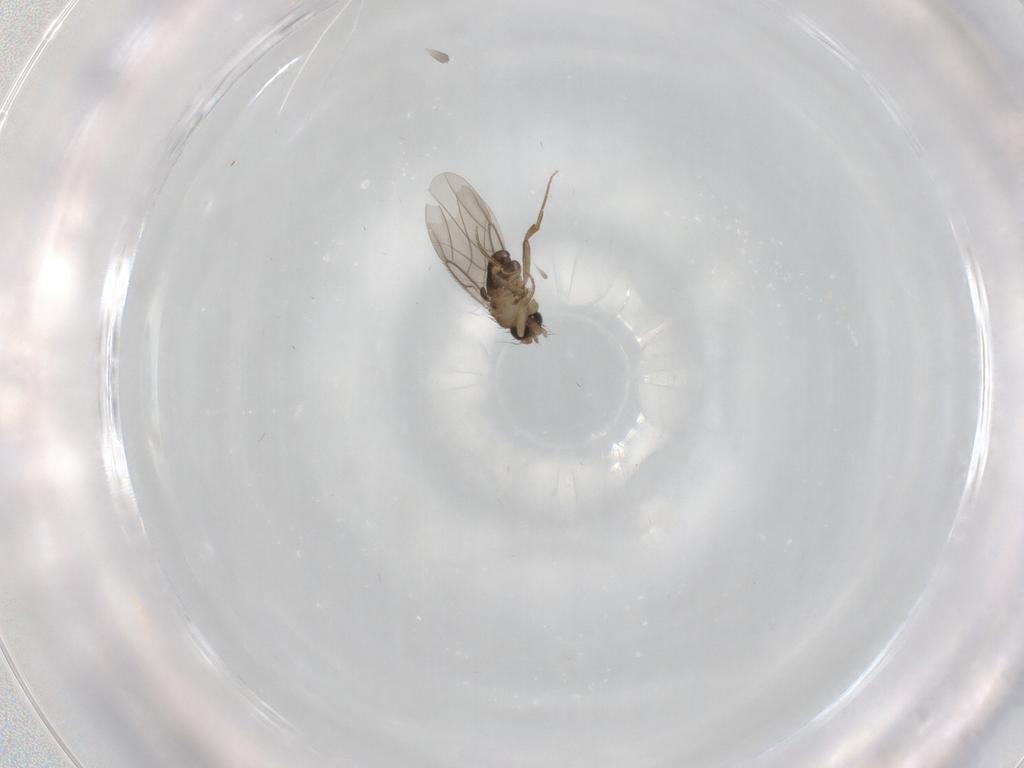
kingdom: Animalia
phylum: Arthropoda
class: Insecta
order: Diptera
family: Phoridae
